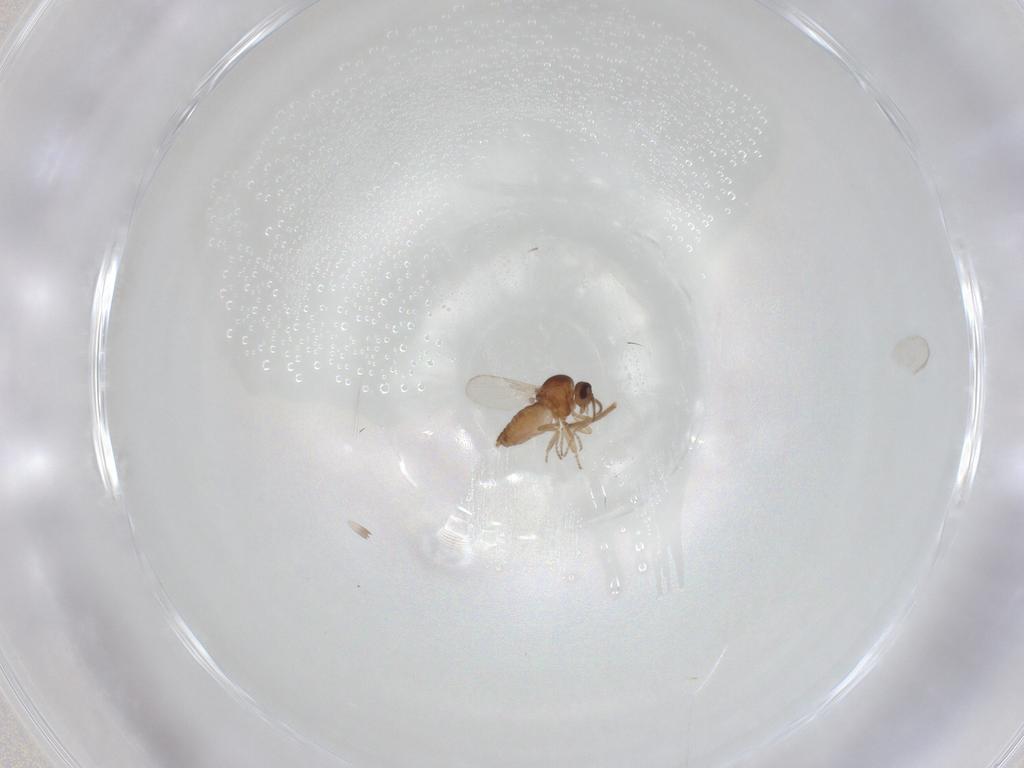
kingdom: Animalia
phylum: Arthropoda
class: Insecta
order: Diptera
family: Ceratopogonidae
